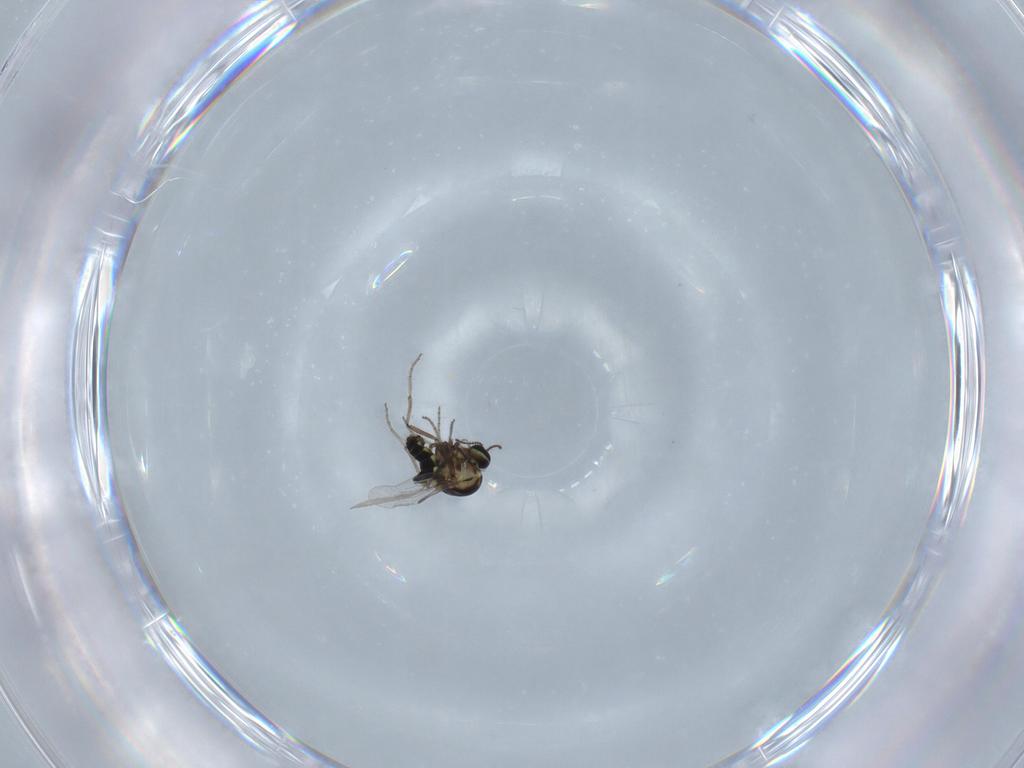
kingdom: Animalia
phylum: Arthropoda
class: Insecta
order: Diptera
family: Ceratopogonidae
